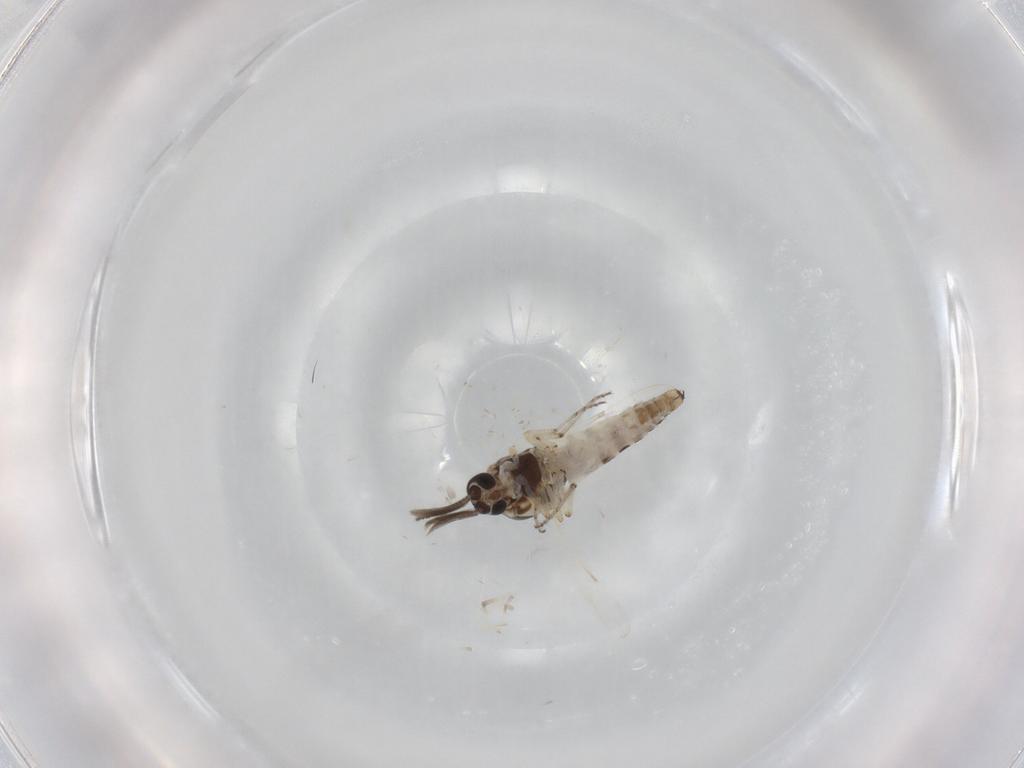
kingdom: Animalia
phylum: Arthropoda
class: Insecta
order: Diptera
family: Ceratopogonidae
